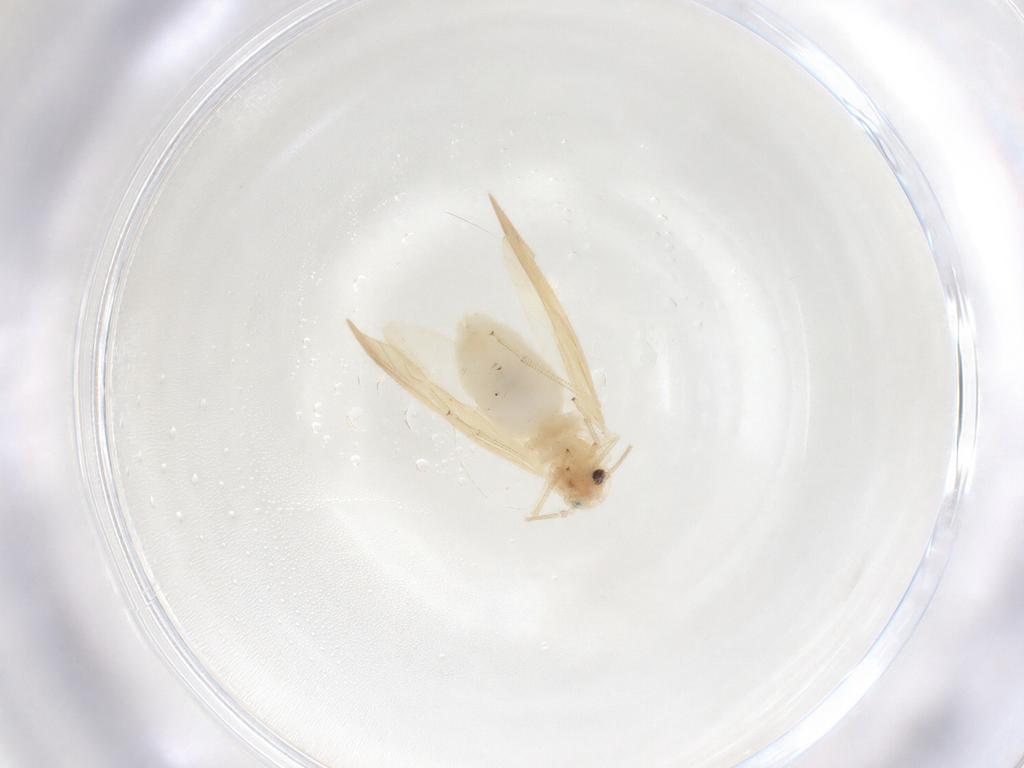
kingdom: Animalia
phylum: Arthropoda
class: Insecta
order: Psocodea
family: Caeciliusidae
